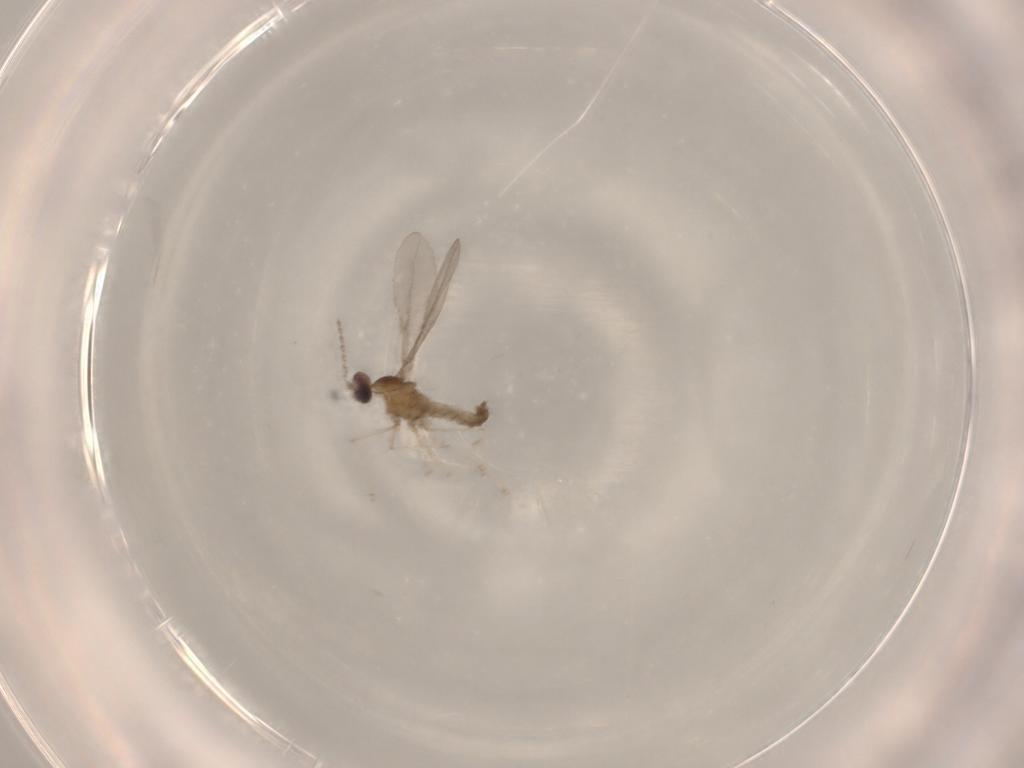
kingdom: Animalia
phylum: Arthropoda
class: Insecta
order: Diptera
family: Cecidomyiidae
